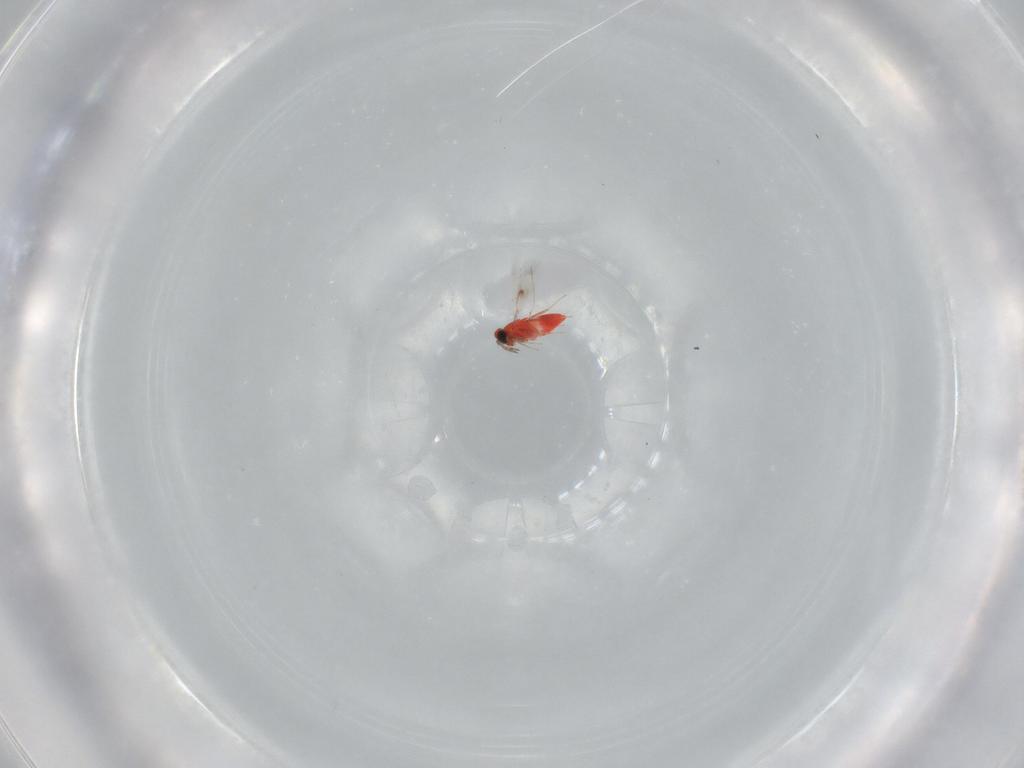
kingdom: Animalia
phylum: Arthropoda
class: Insecta
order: Hymenoptera
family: Trichogrammatidae
